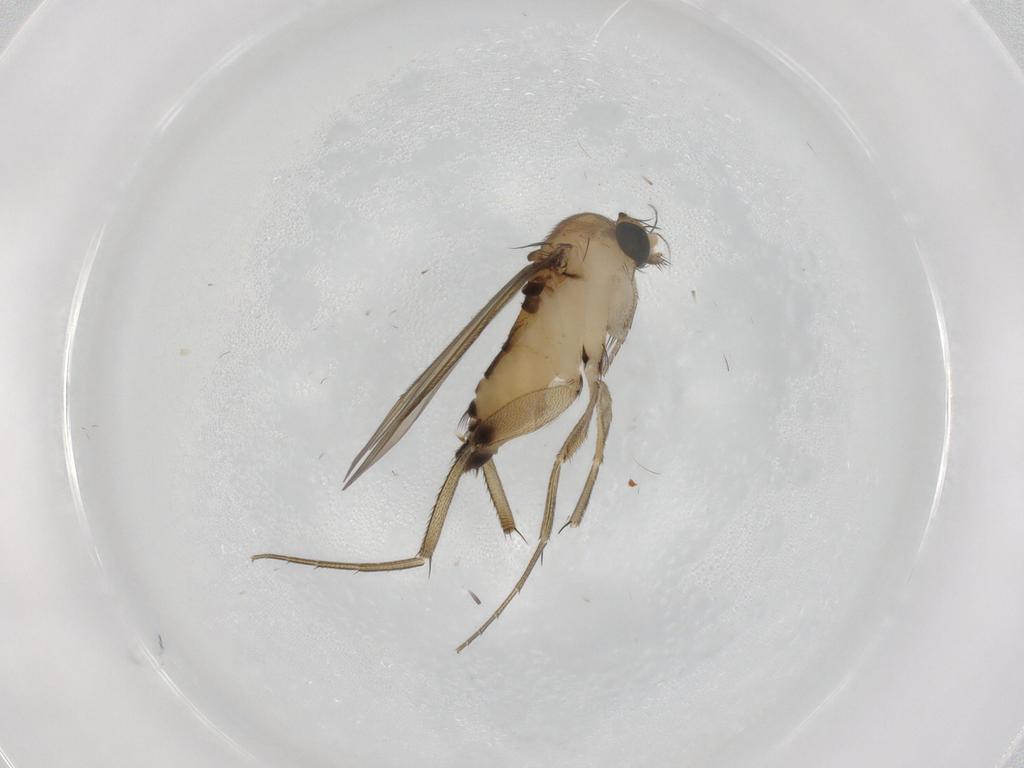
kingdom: Animalia
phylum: Arthropoda
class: Insecta
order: Diptera
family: Phoridae
